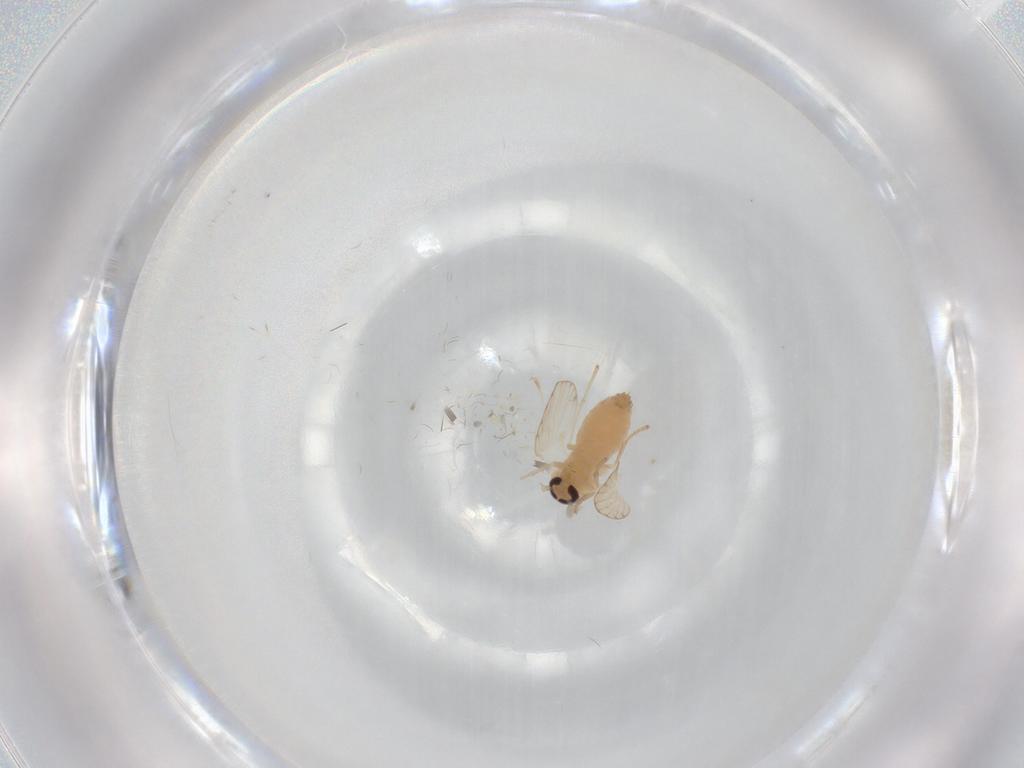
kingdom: Animalia
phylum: Arthropoda
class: Insecta
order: Diptera
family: Psychodidae
